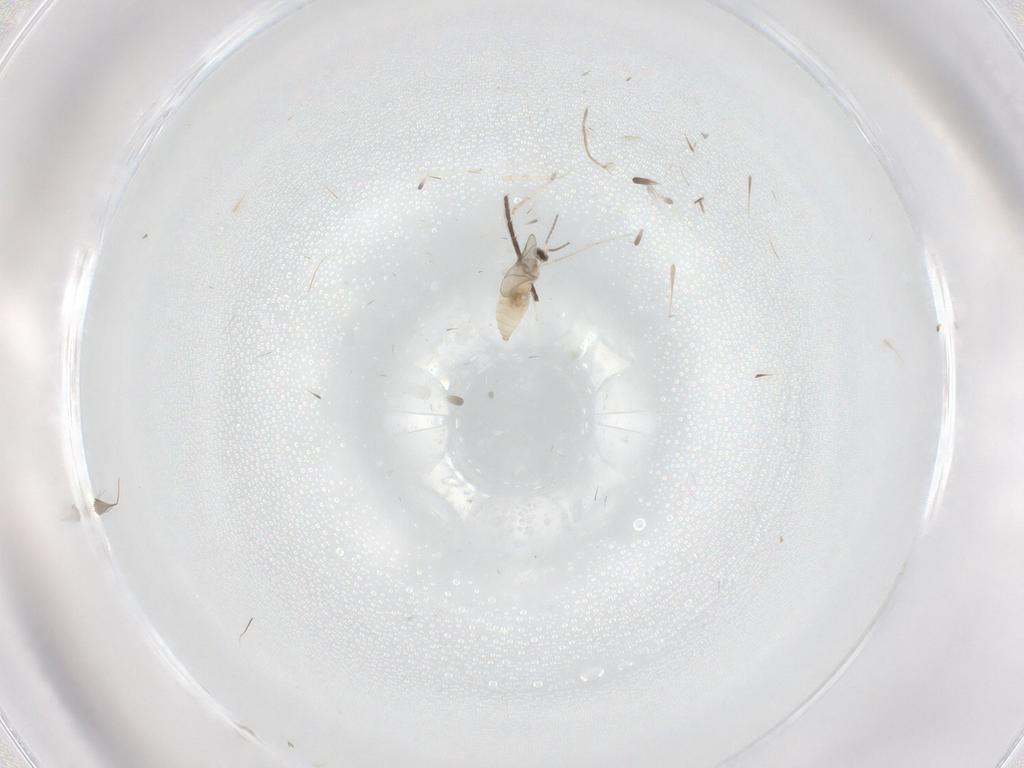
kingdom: Animalia
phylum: Arthropoda
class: Insecta
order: Diptera
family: Cecidomyiidae
